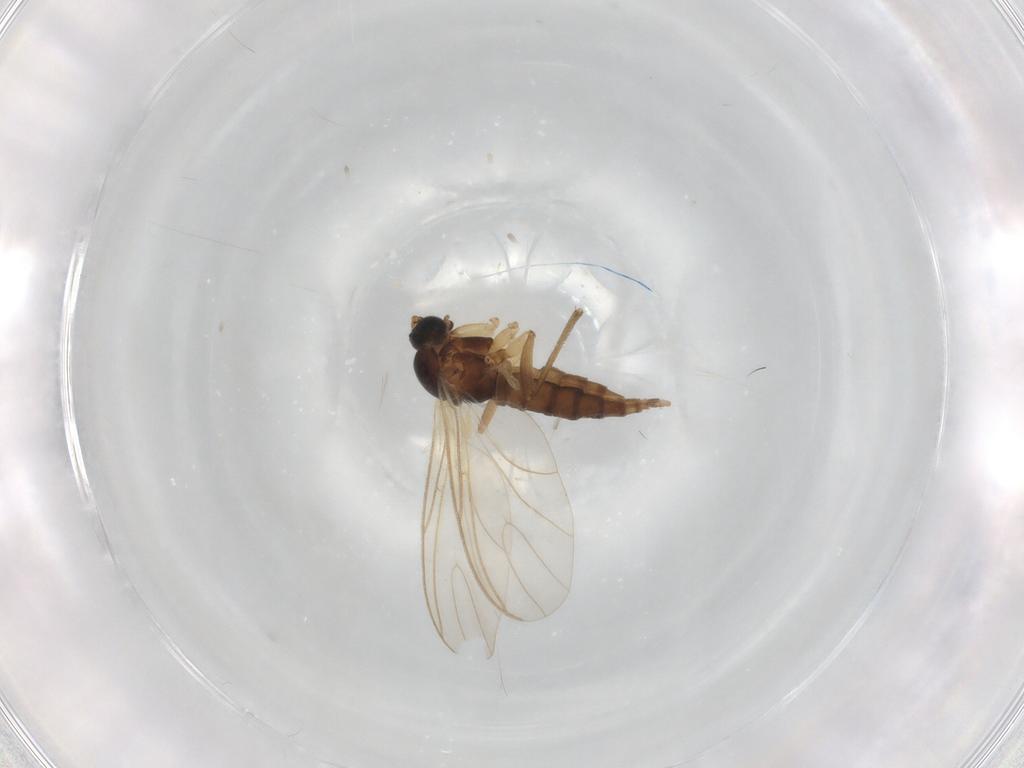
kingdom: Animalia
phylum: Arthropoda
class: Insecta
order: Diptera
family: Sciaridae
